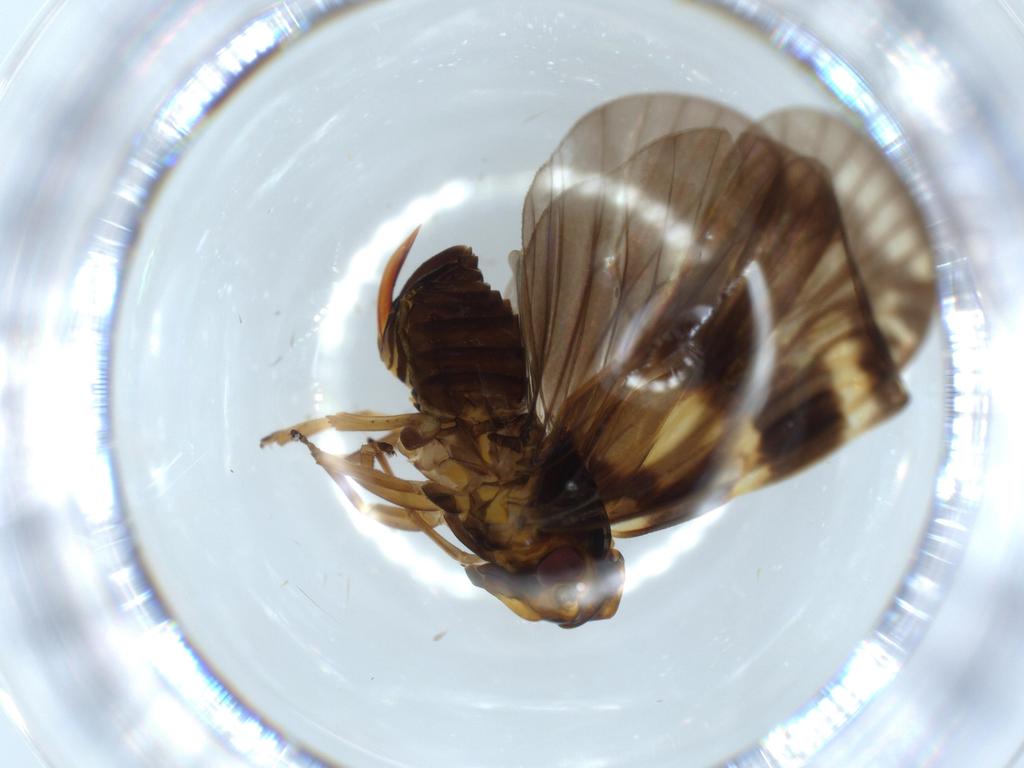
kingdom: Animalia
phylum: Arthropoda
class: Insecta
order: Hemiptera
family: Cixiidae
